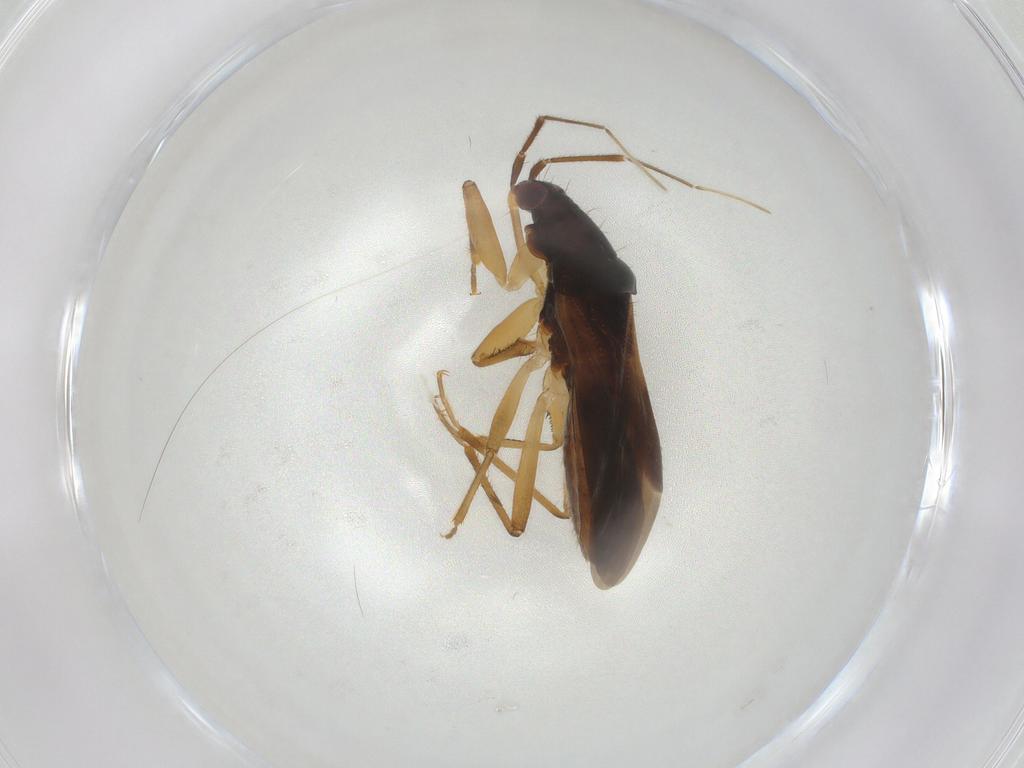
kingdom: Animalia
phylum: Arthropoda
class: Insecta
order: Hemiptera
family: Nabidae
